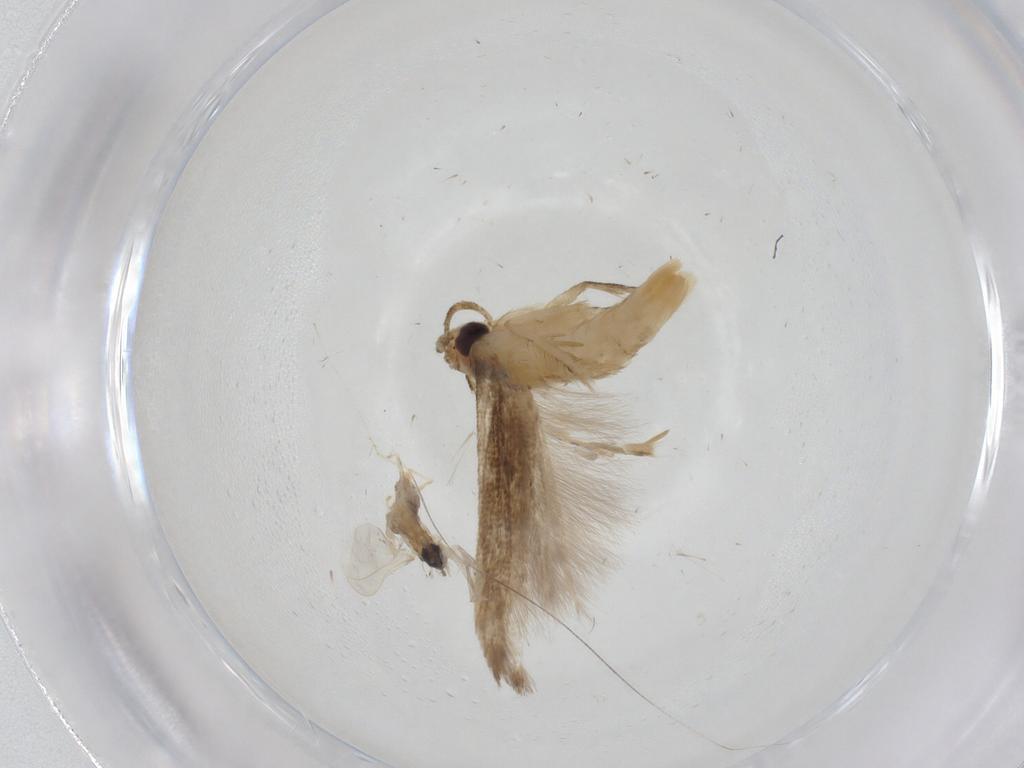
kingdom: Animalia
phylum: Arthropoda
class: Insecta
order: Diptera
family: Cecidomyiidae
